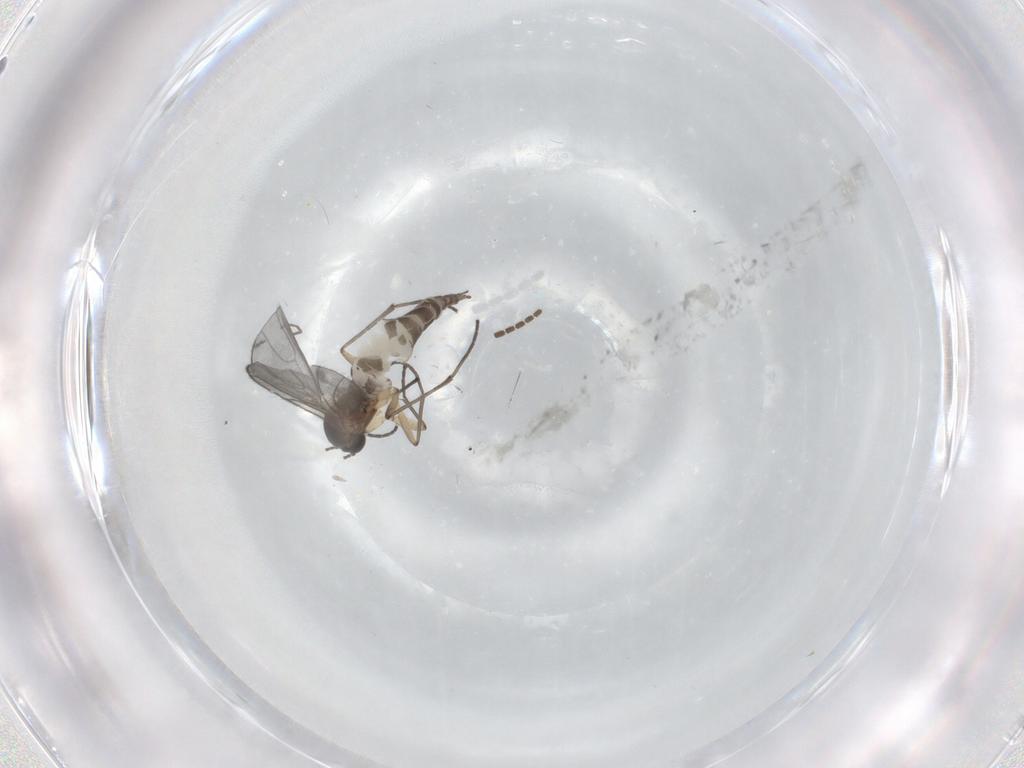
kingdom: Animalia
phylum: Arthropoda
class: Insecta
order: Diptera
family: Sciaridae
